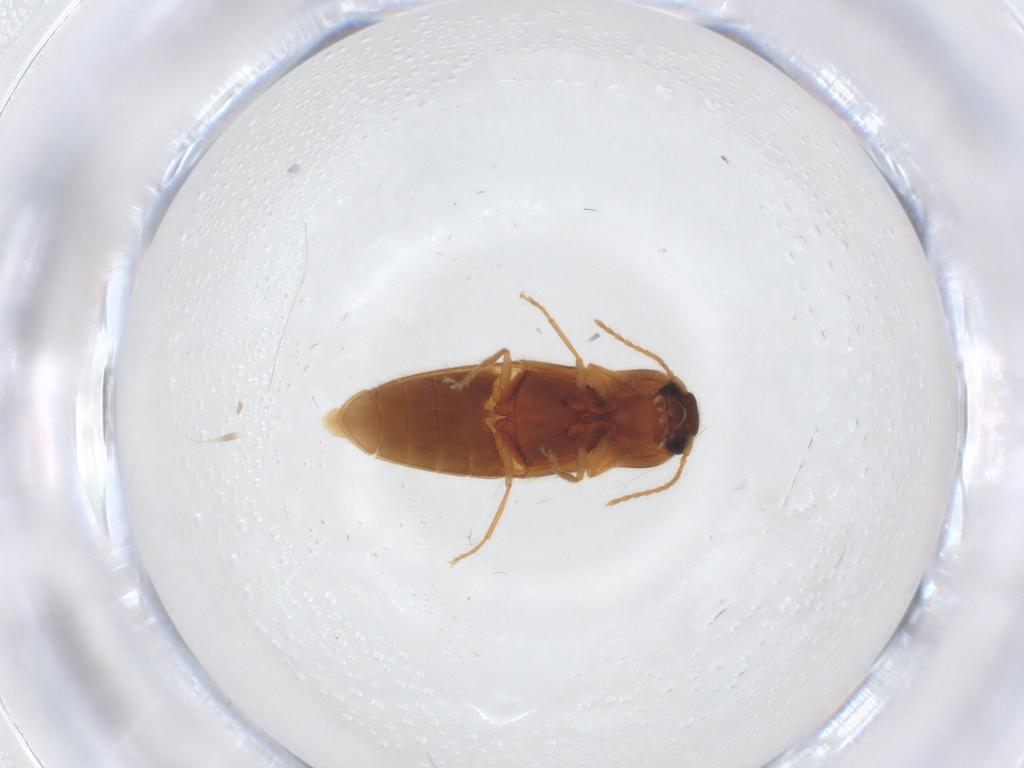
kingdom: Animalia
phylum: Arthropoda
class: Insecta
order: Coleoptera
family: Elateridae
